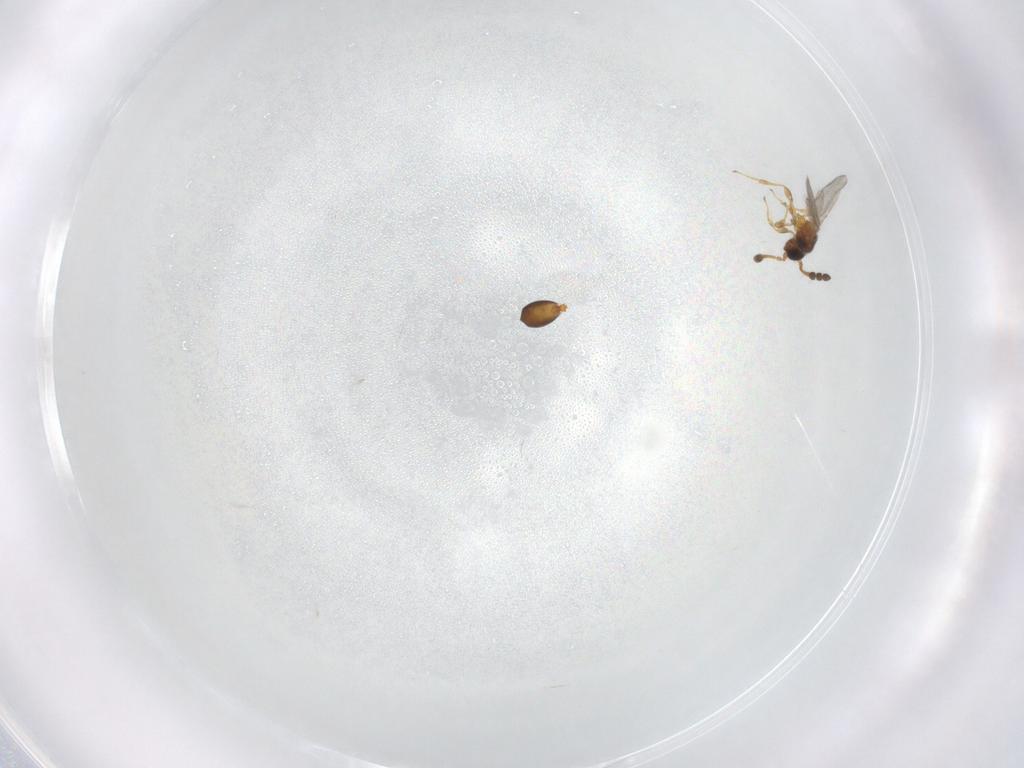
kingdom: Animalia
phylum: Arthropoda
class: Insecta
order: Hymenoptera
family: Diapriidae
